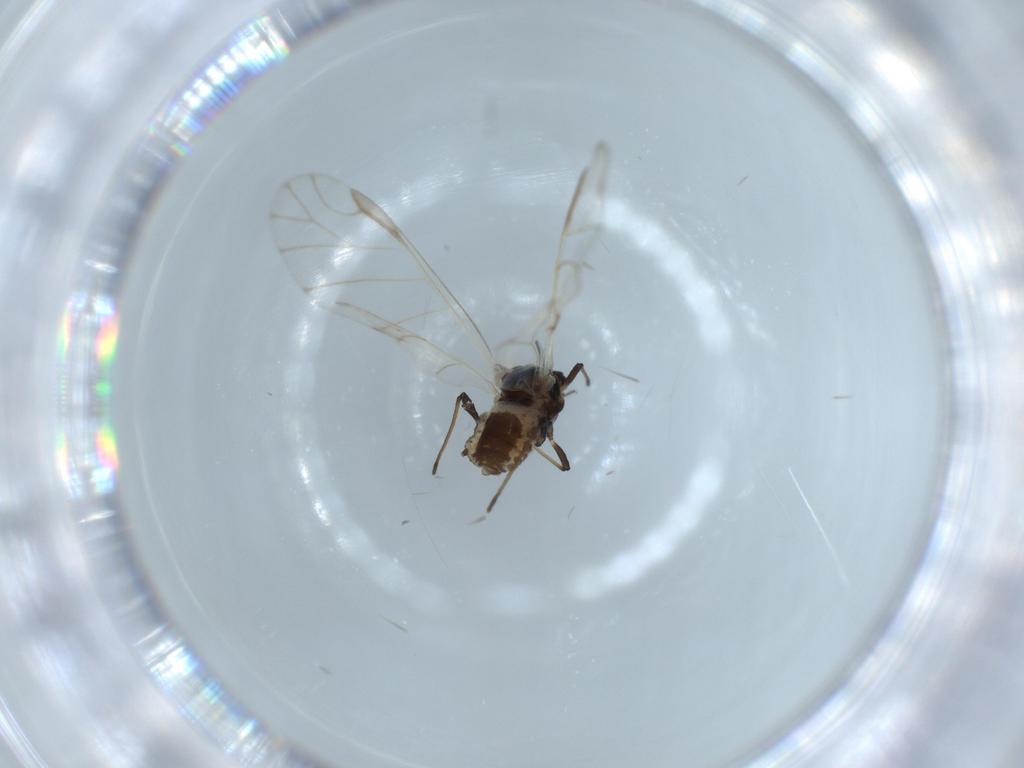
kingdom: Animalia
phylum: Arthropoda
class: Insecta
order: Hemiptera
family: Aphididae
